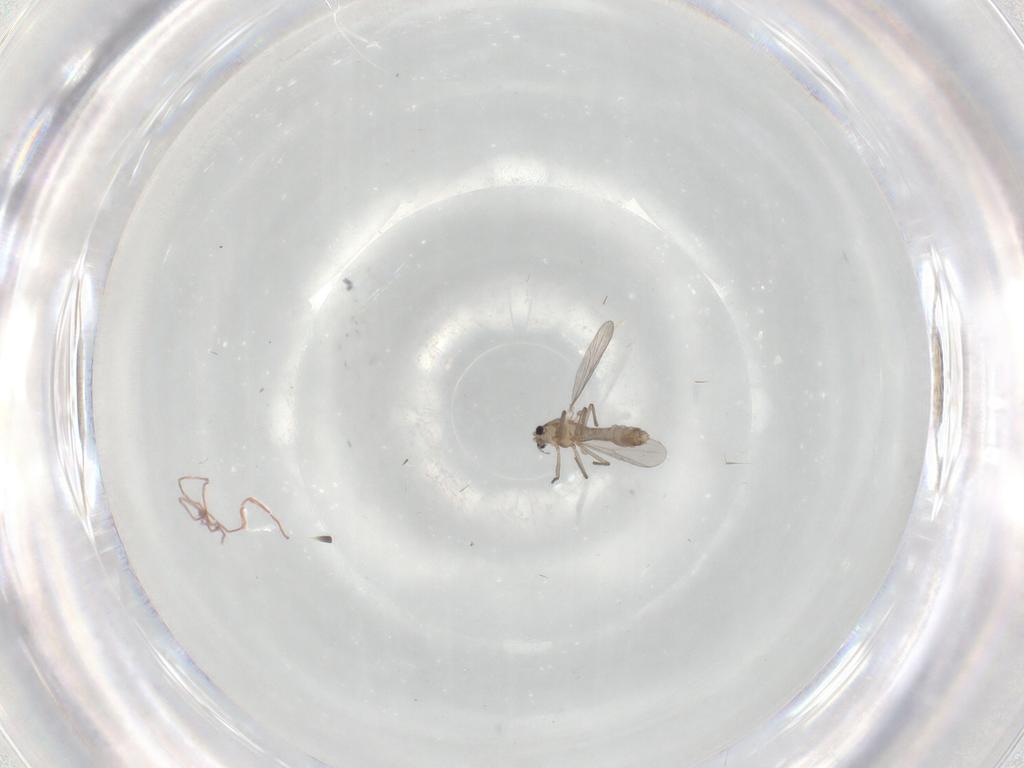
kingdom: Animalia
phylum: Arthropoda
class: Insecta
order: Diptera
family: Chironomidae
